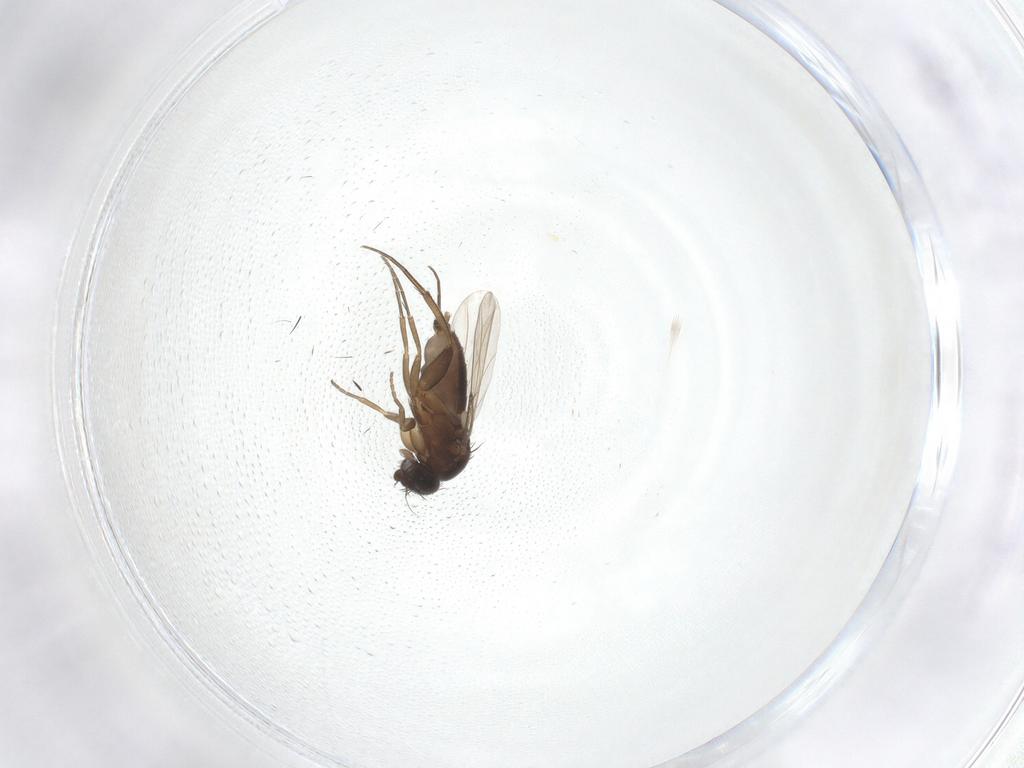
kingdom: Animalia
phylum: Arthropoda
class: Insecta
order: Diptera
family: Phoridae
